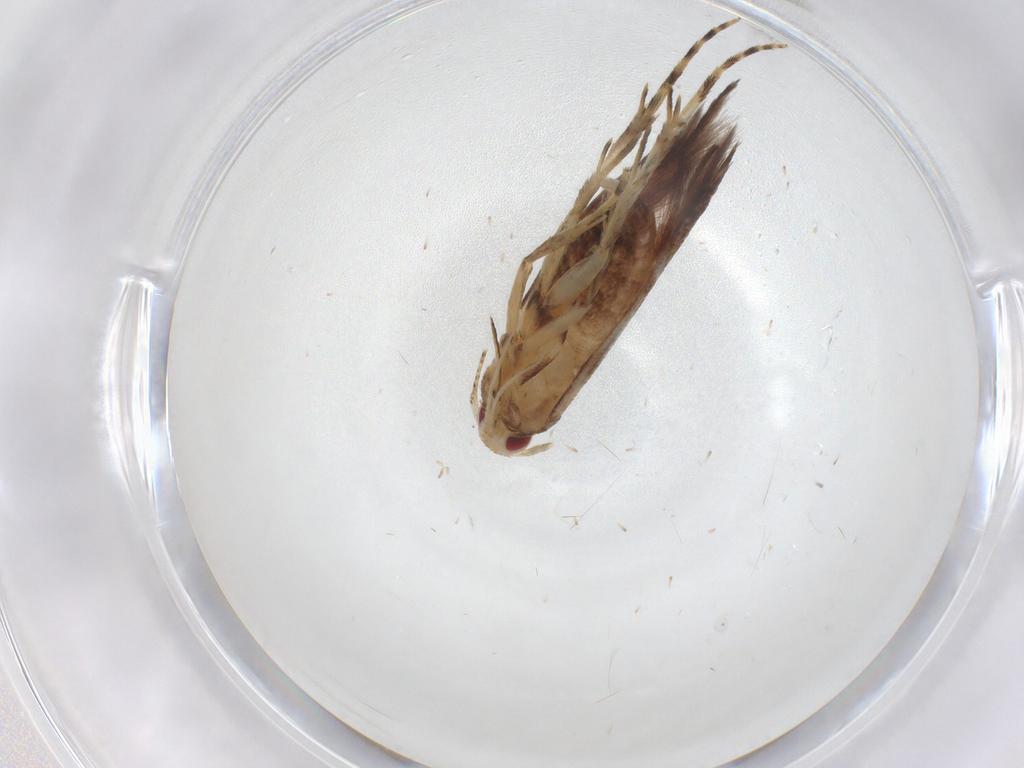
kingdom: Animalia
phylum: Arthropoda
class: Insecta
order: Lepidoptera
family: Cosmopterigidae
